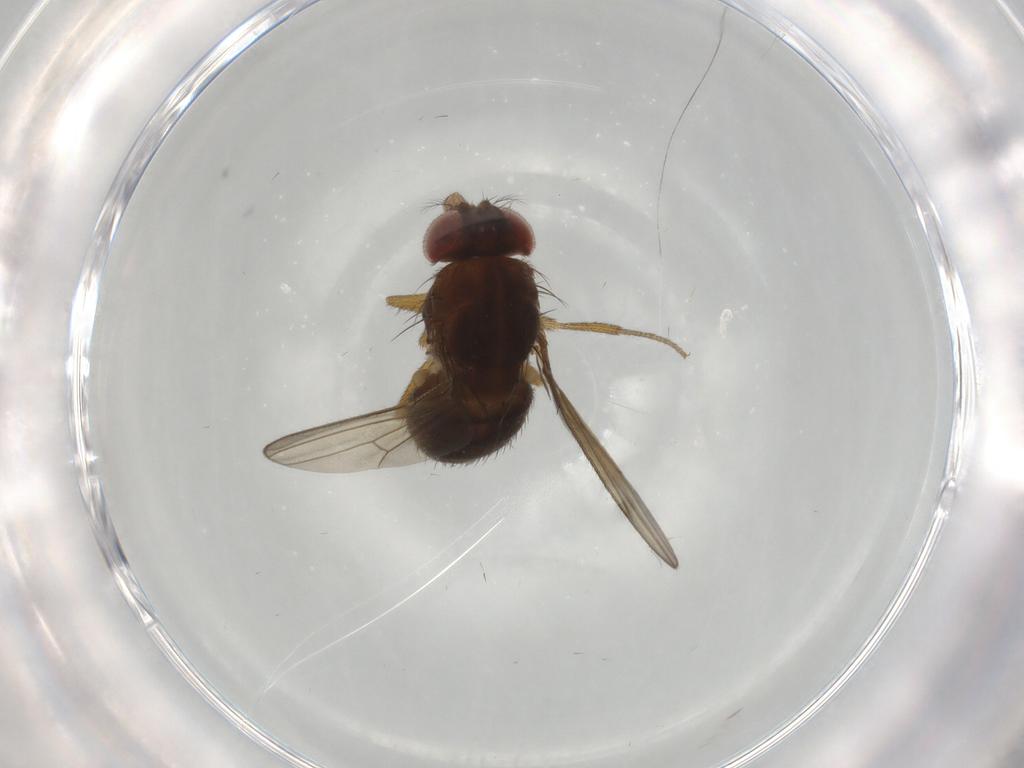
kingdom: Animalia
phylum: Arthropoda
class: Insecta
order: Diptera
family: Drosophilidae
